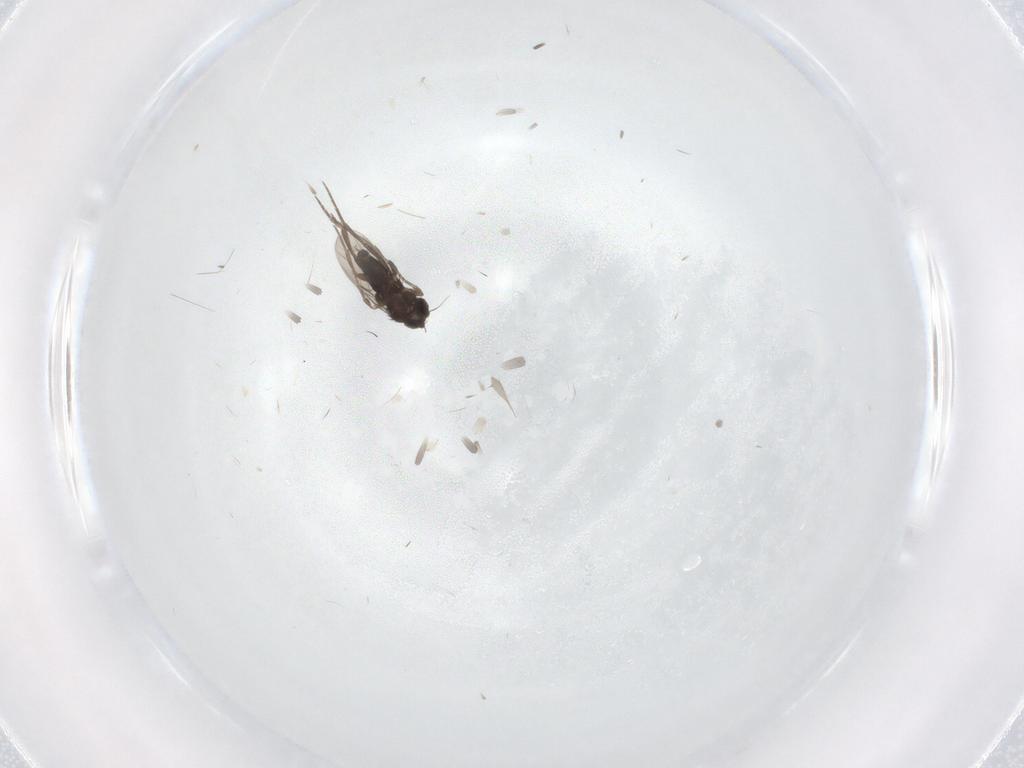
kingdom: Animalia
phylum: Arthropoda
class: Insecta
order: Diptera
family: Phoridae
